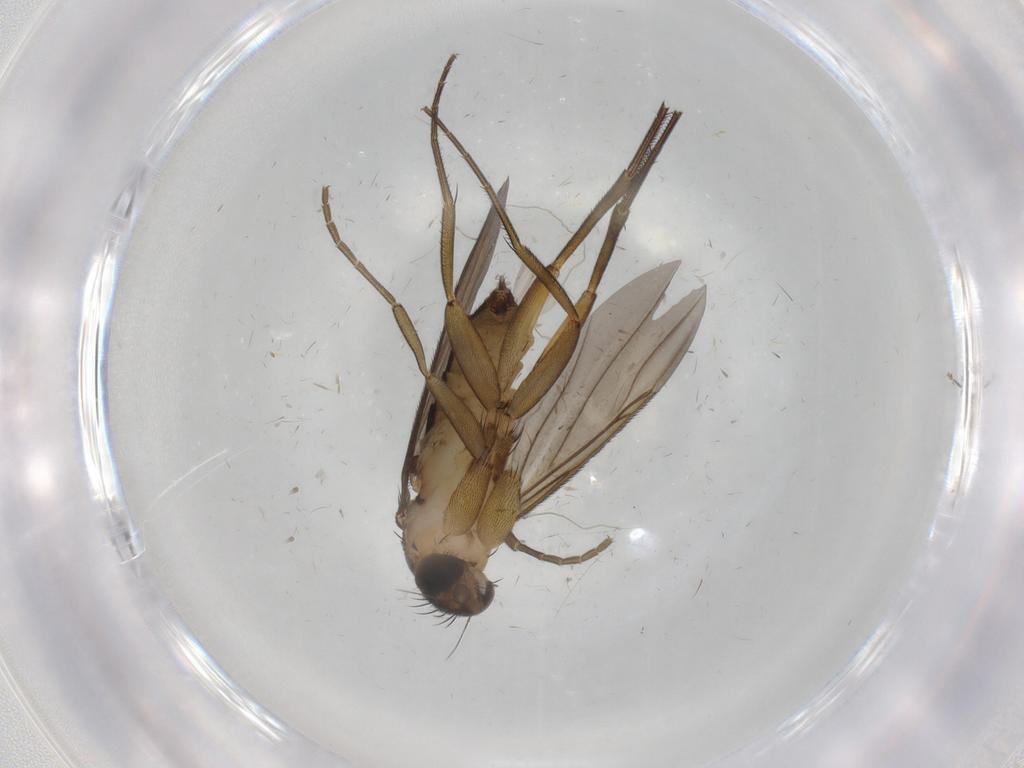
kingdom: Animalia
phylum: Arthropoda
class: Insecta
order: Diptera
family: Phoridae
